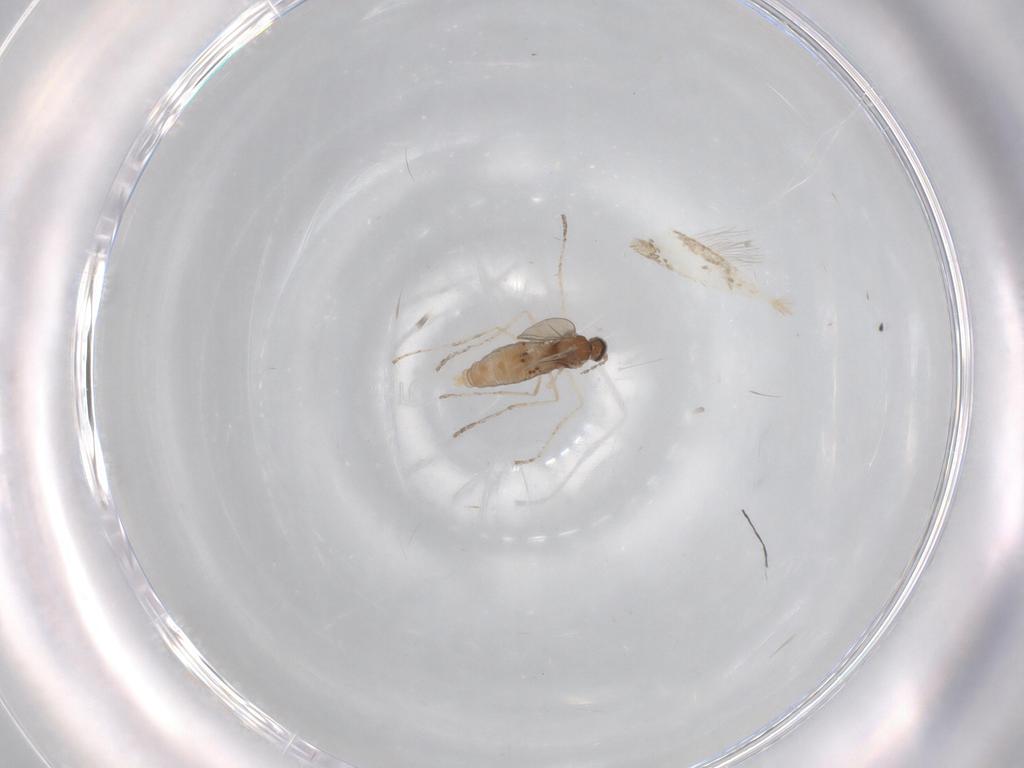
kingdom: Animalia
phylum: Arthropoda
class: Insecta
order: Diptera
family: Cecidomyiidae
